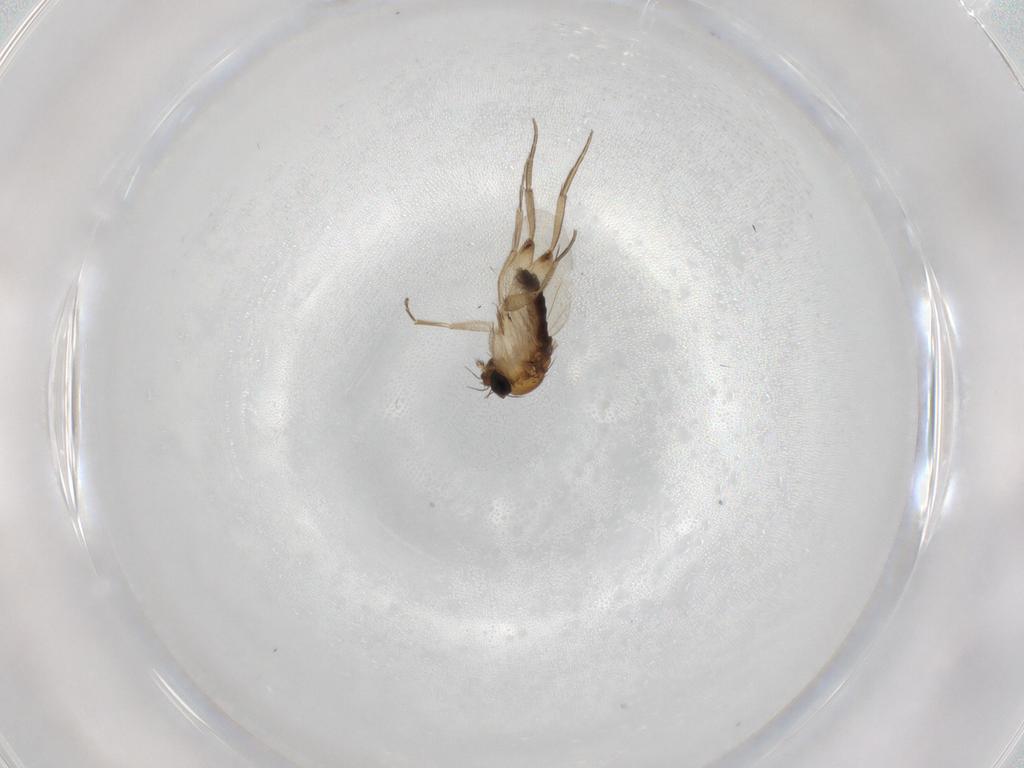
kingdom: Animalia
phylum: Arthropoda
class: Insecta
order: Diptera
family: Phoridae
